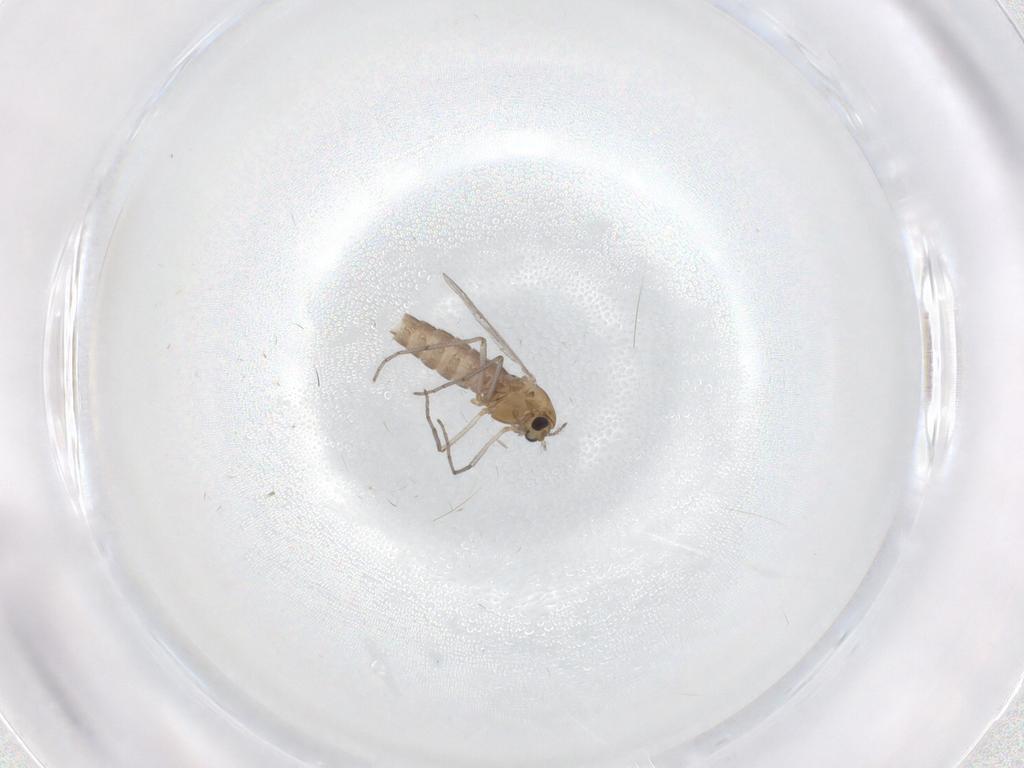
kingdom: Animalia
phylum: Arthropoda
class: Insecta
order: Diptera
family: Chironomidae
